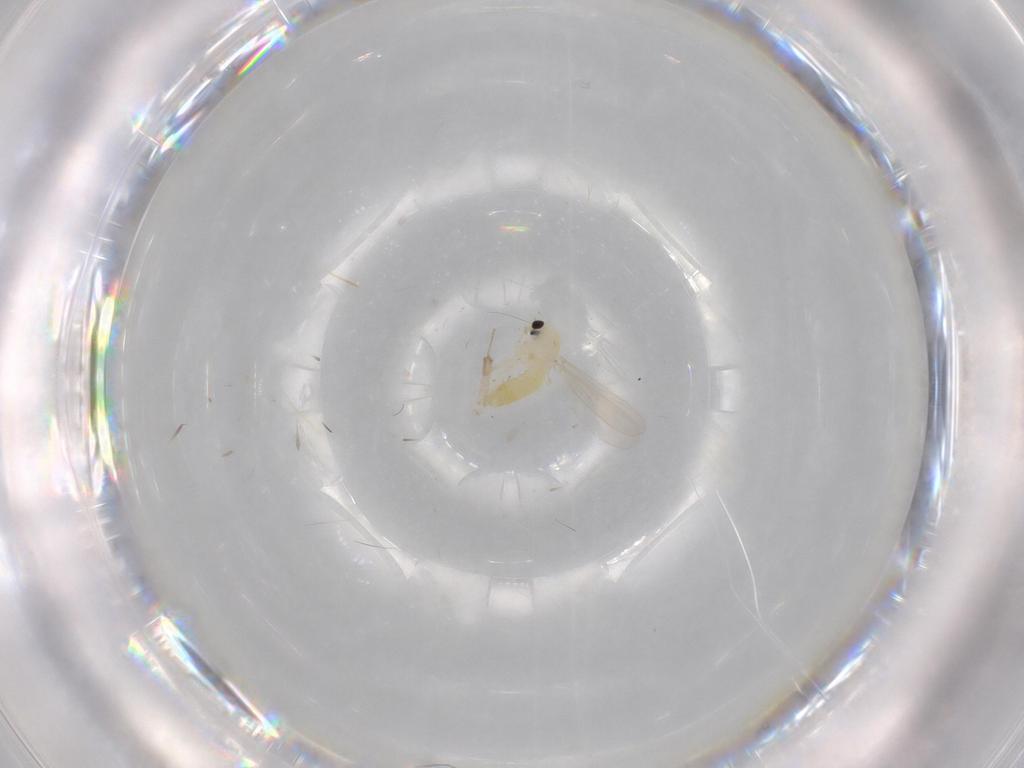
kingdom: Animalia
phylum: Arthropoda
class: Insecta
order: Diptera
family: Chironomidae
